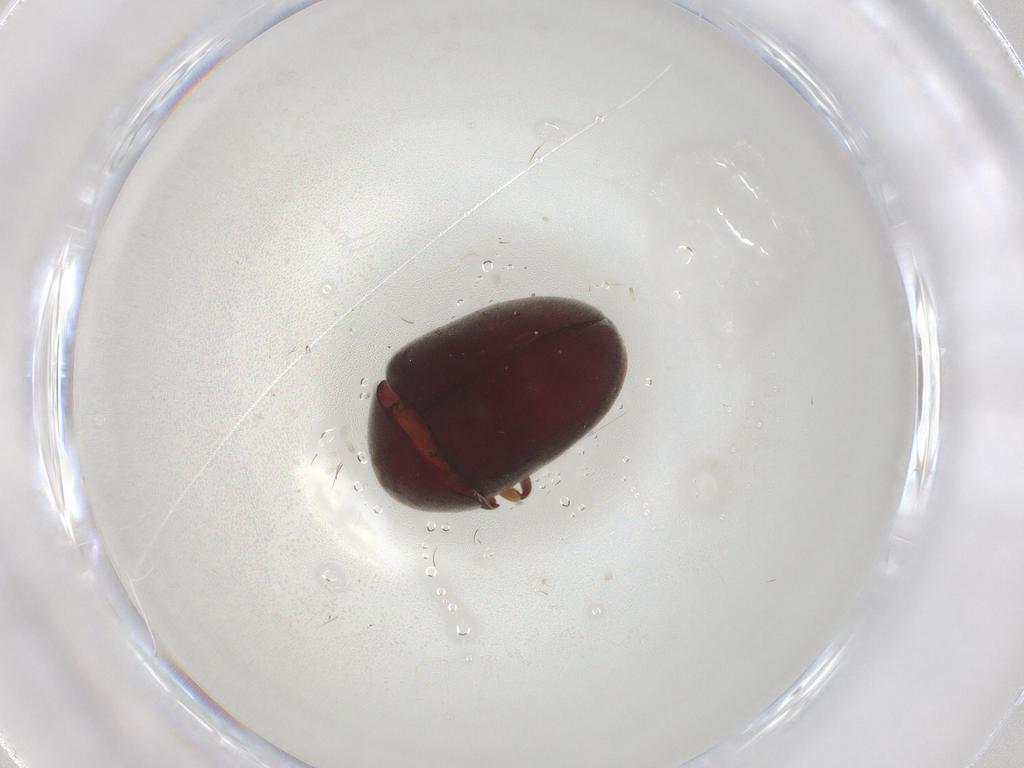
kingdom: Animalia
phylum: Arthropoda
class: Insecta
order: Coleoptera
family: Ptinidae
